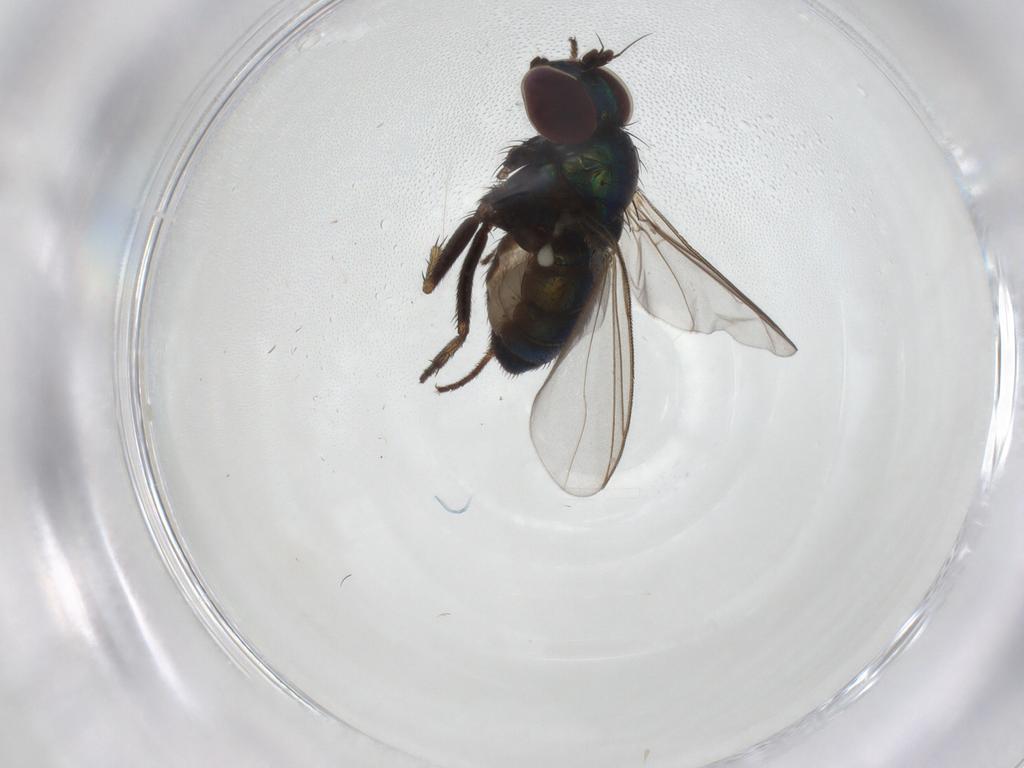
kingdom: Animalia
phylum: Arthropoda
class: Insecta
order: Diptera
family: Dolichopodidae
